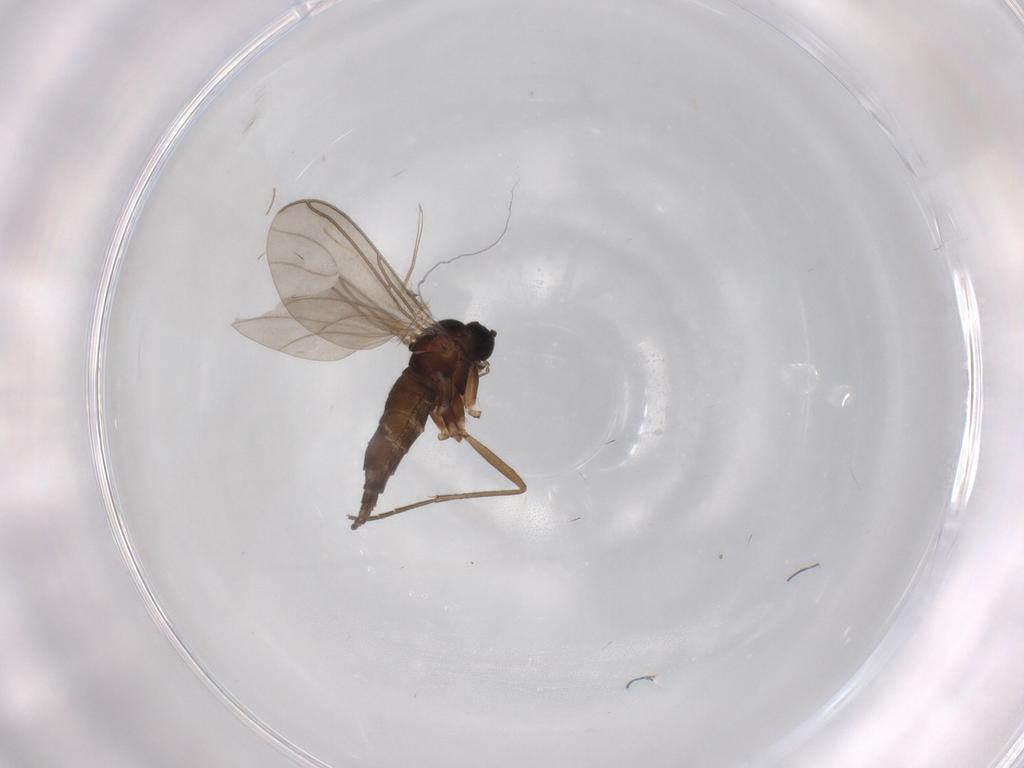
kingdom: Animalia
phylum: Arthropoda
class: Insecta
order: Diptera
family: Sciaridae
